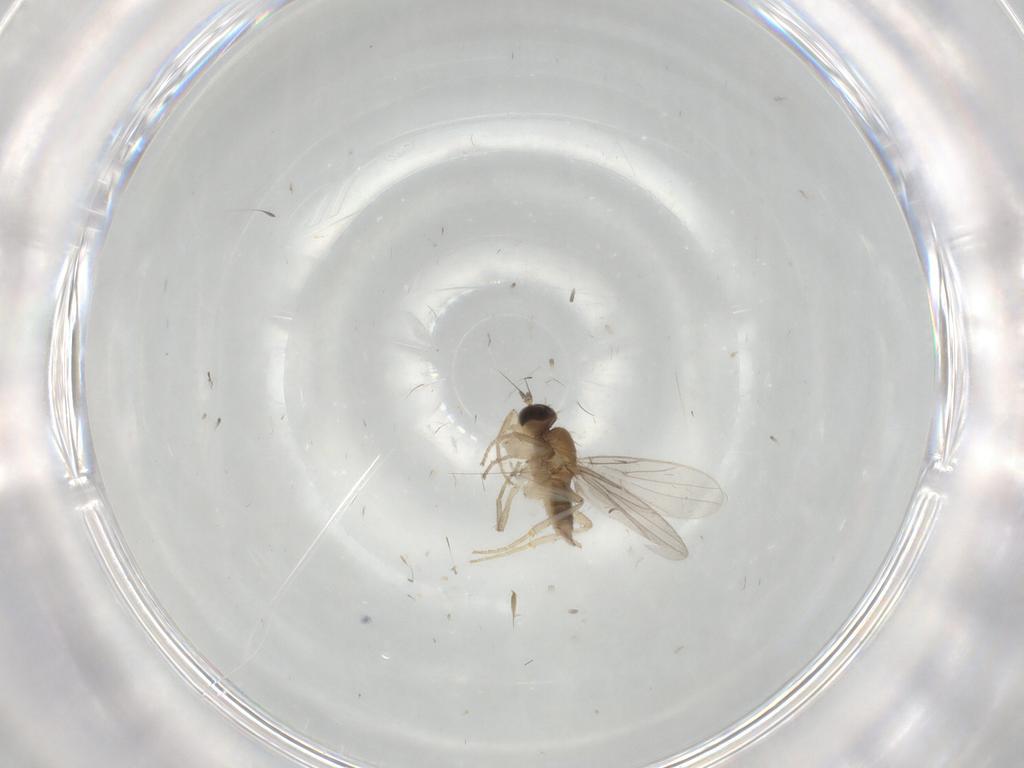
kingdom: Animalia
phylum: Arthropoda
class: Insecta
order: Diptera
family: Hybotidae
